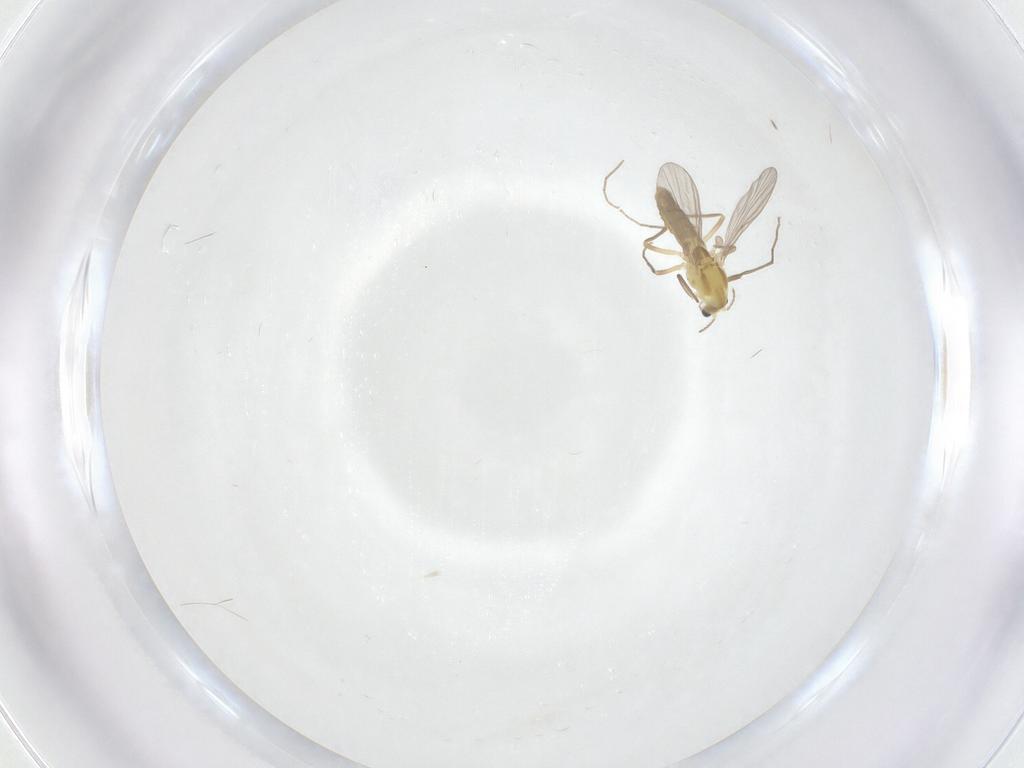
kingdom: Animalia
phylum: Arthropoda
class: Insecta
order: Diptera
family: Chironomidae
